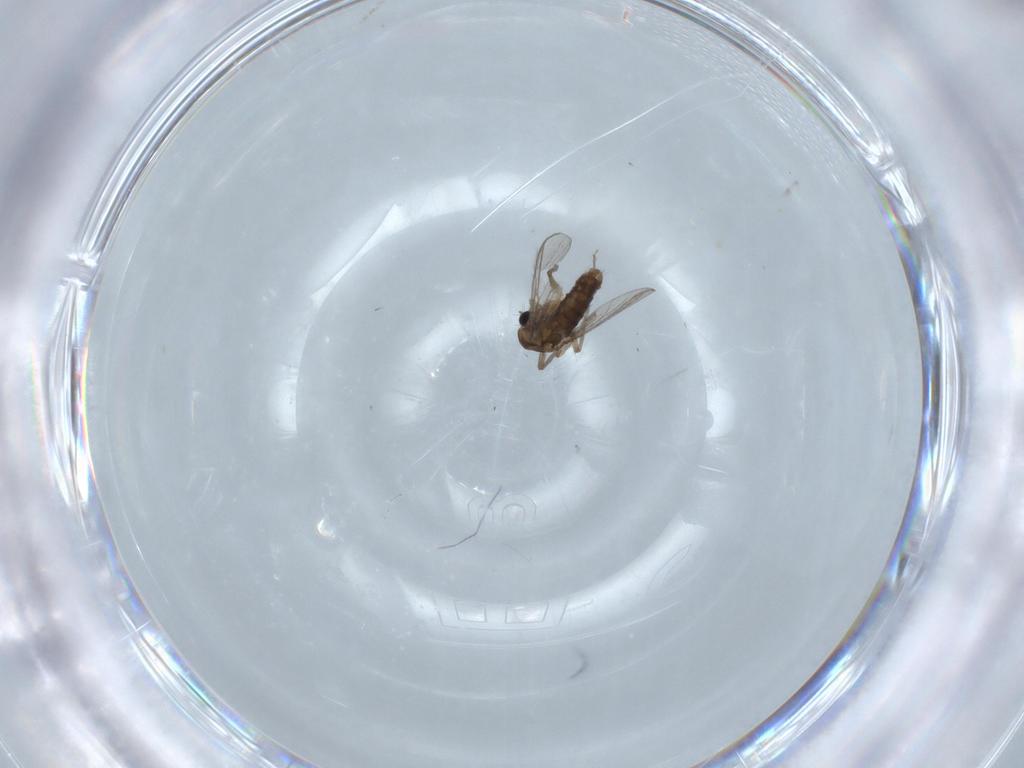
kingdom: Animalia
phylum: Arthropoda
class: Insecta
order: Diptera
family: Chironomidae
